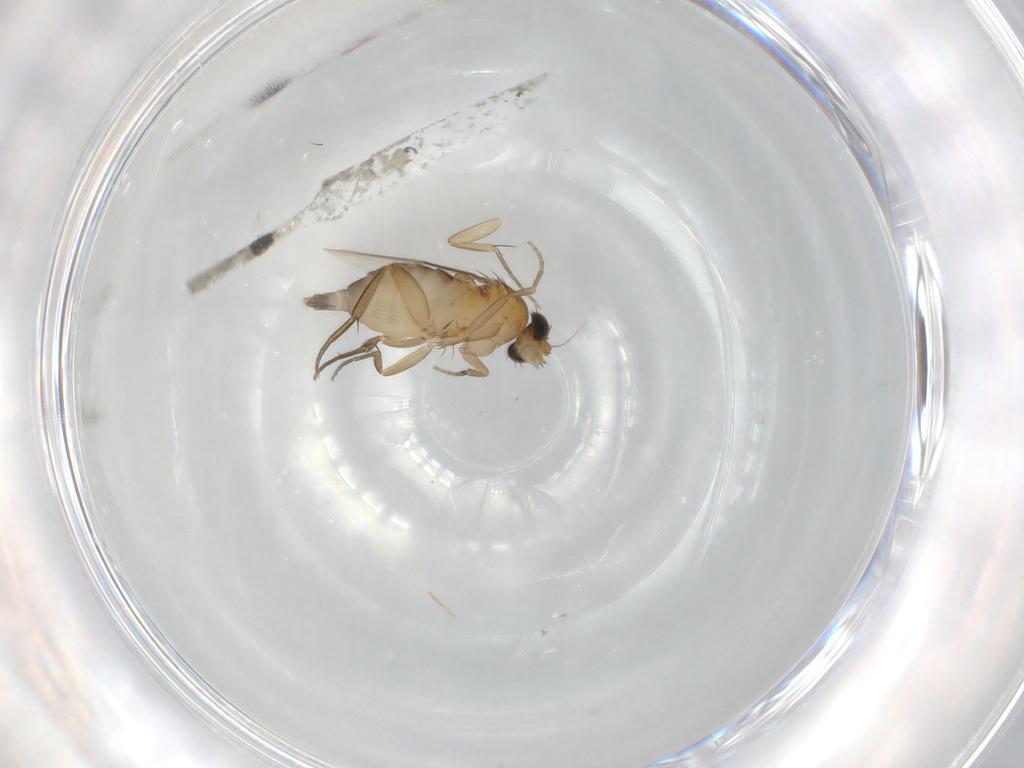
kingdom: Animalia
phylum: Arthropoda
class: Insecta
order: Diptera
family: Phoridae
